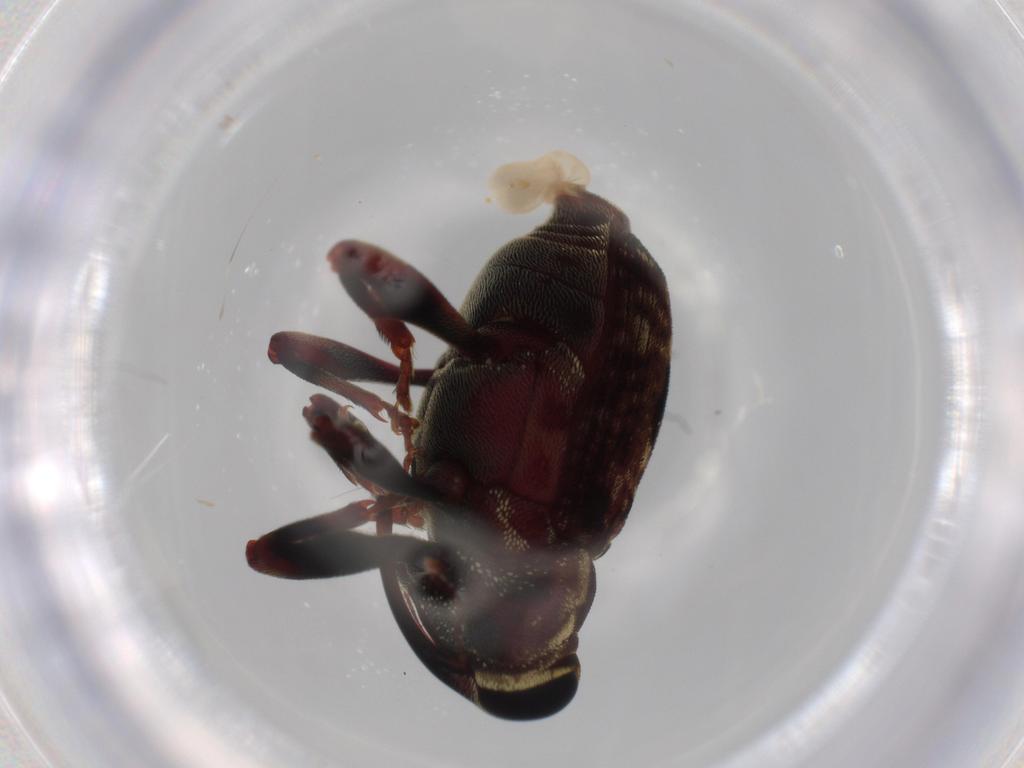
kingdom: Animalia
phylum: Arthropoda
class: Insecta
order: Coleoptera
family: Curculionidae
